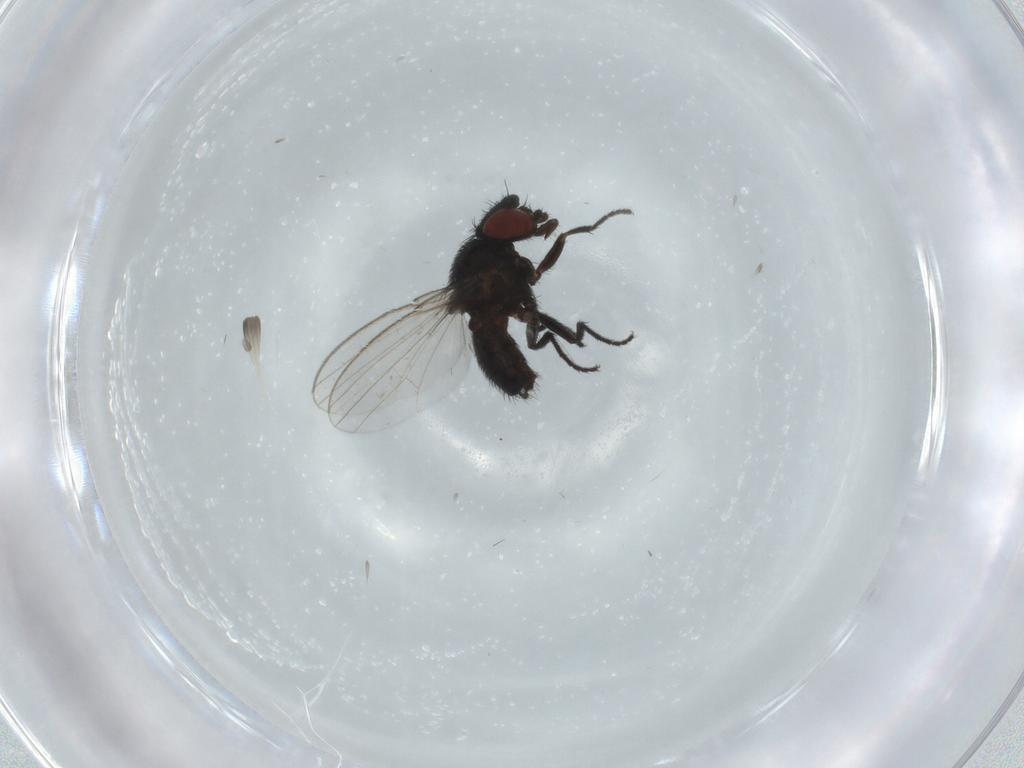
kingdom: Animalia
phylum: Arthropoda
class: Insecta
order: Diptera
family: Milichiidae
